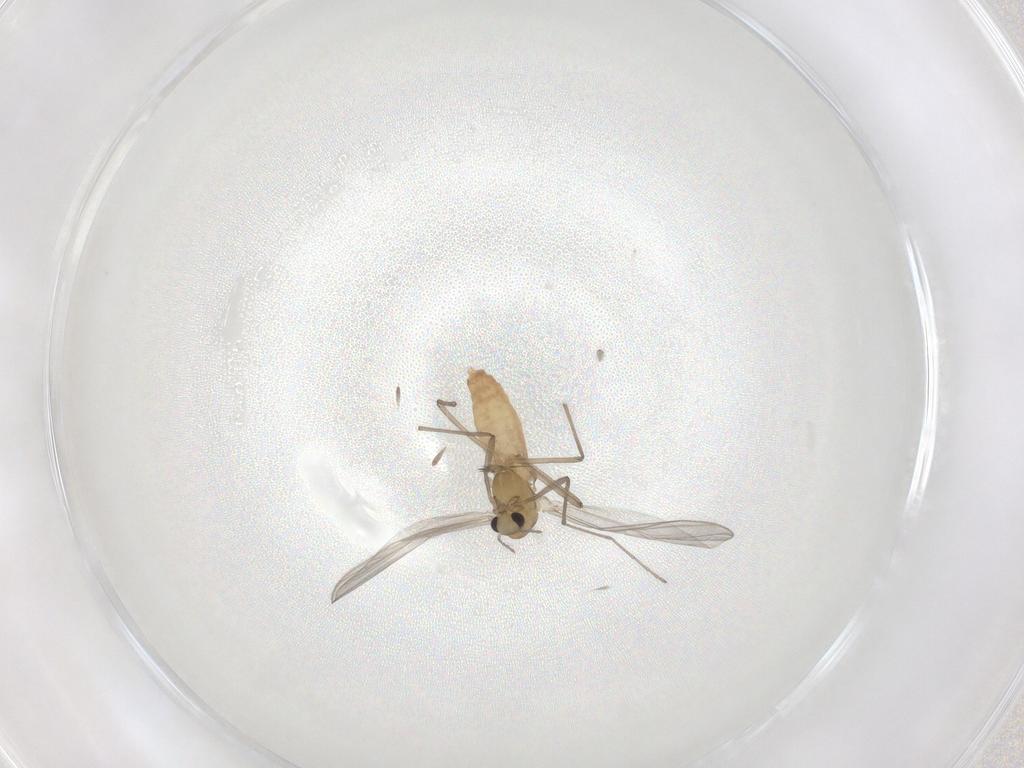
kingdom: Animalia
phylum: Arthropoda
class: Insecta
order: Diptera
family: Chironomidae
